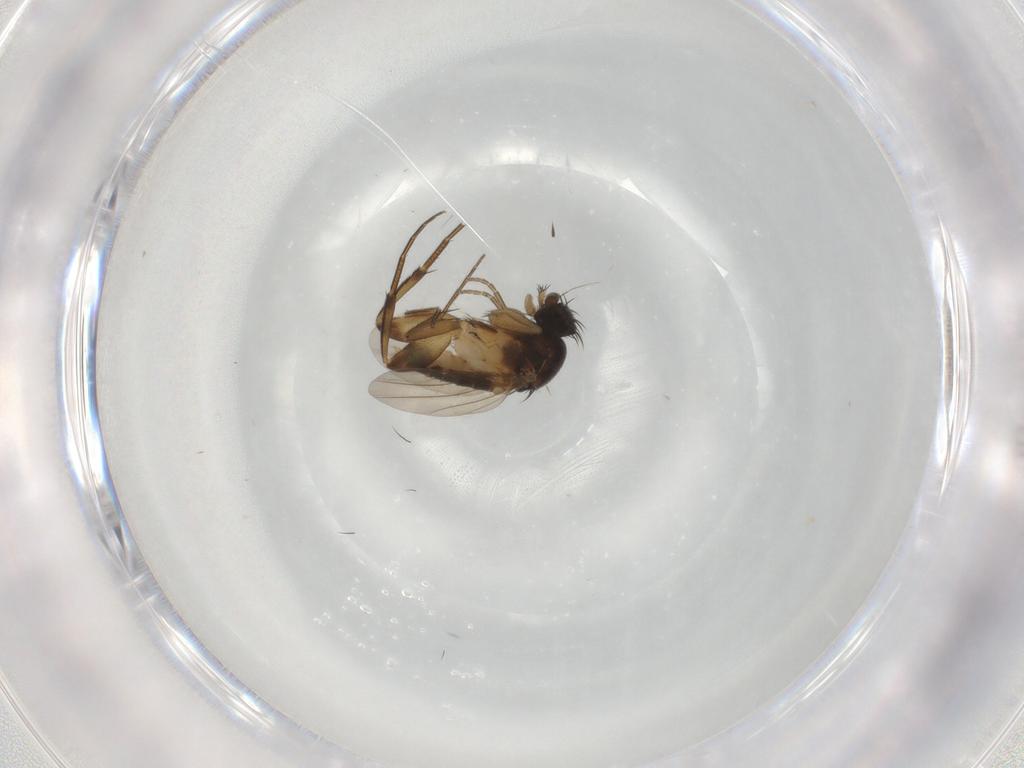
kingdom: Animalia
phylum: Arthropoda
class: Insecta
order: Diptera
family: Phoridae
